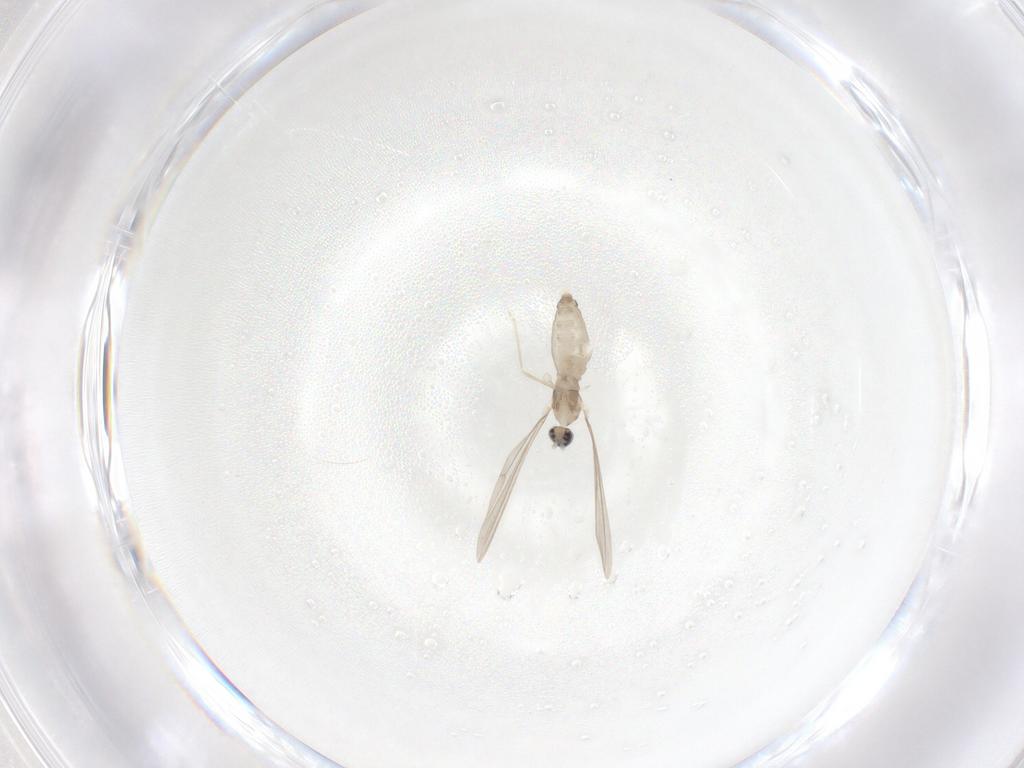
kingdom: Animalia
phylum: Arthropoda
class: Insecta
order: Diptera
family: Cecidomyiidae
